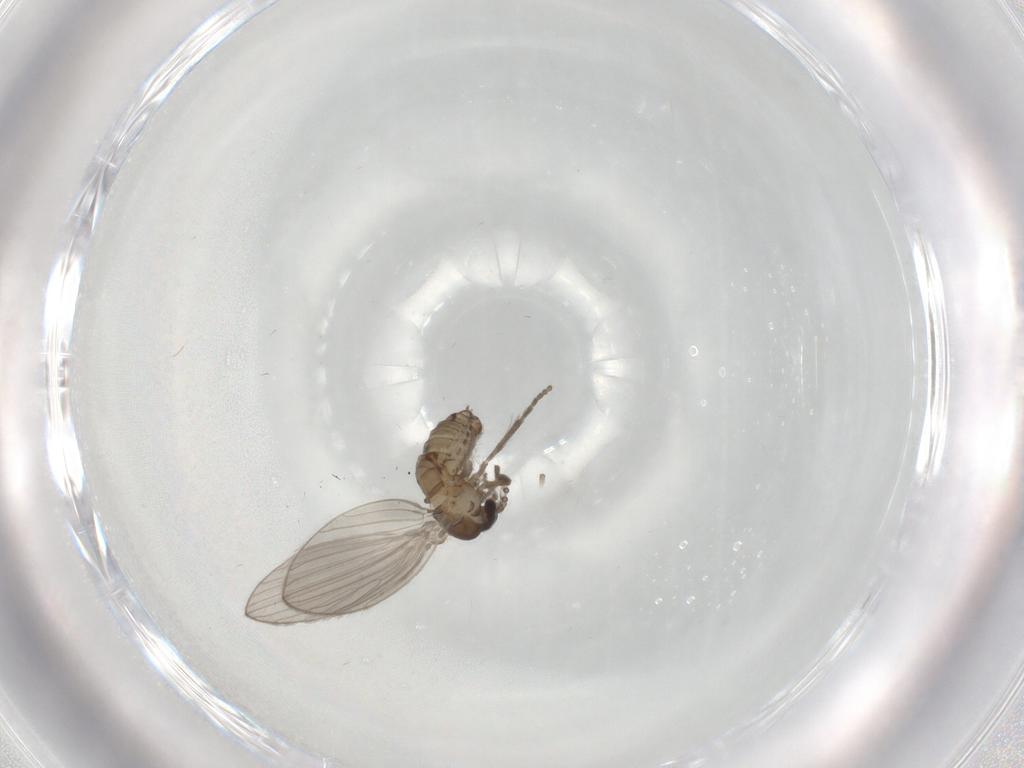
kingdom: Animalia
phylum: Arthropoda
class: Insecta
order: Diptera
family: Psychodidae
